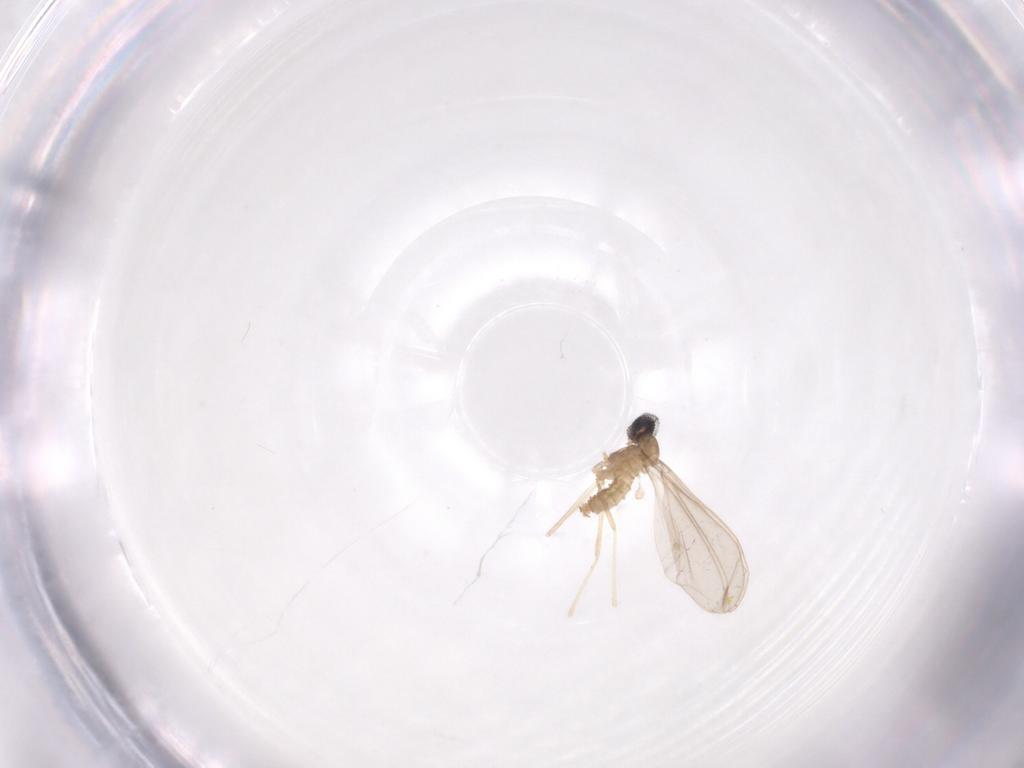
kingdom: Animalia
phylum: Arthropoda
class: Insecta
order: Diptera
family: Cecidomyiidae
